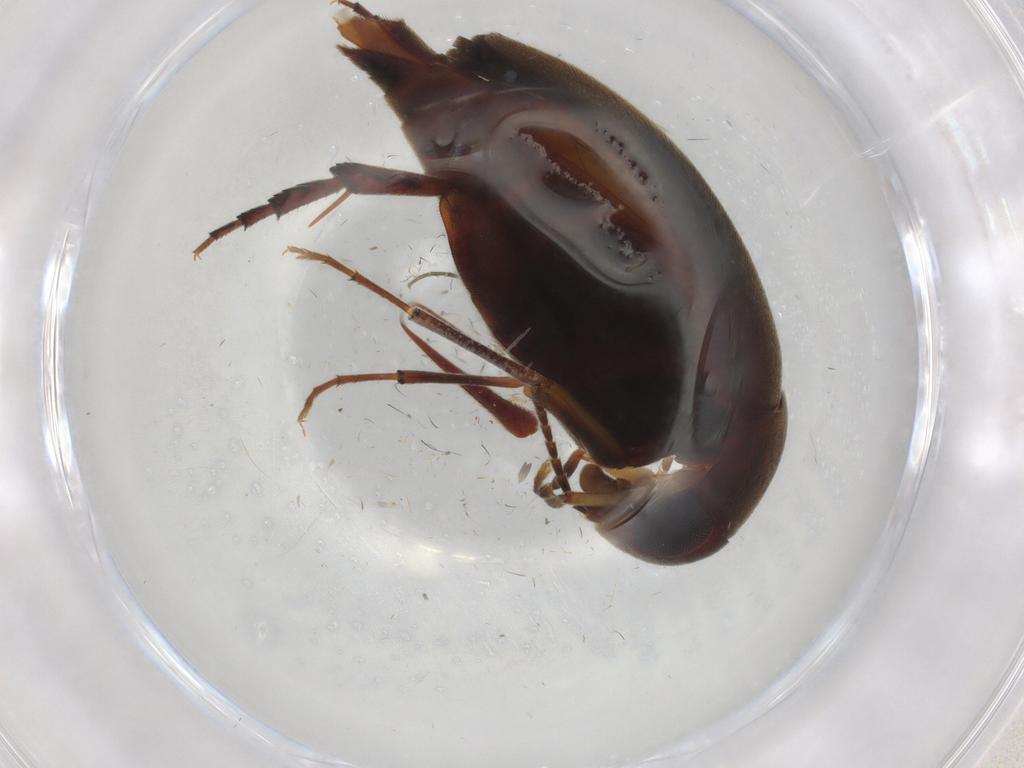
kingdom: Animalia
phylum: Arthropoda
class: Insecta
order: Coleoptera
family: Mordellidae
